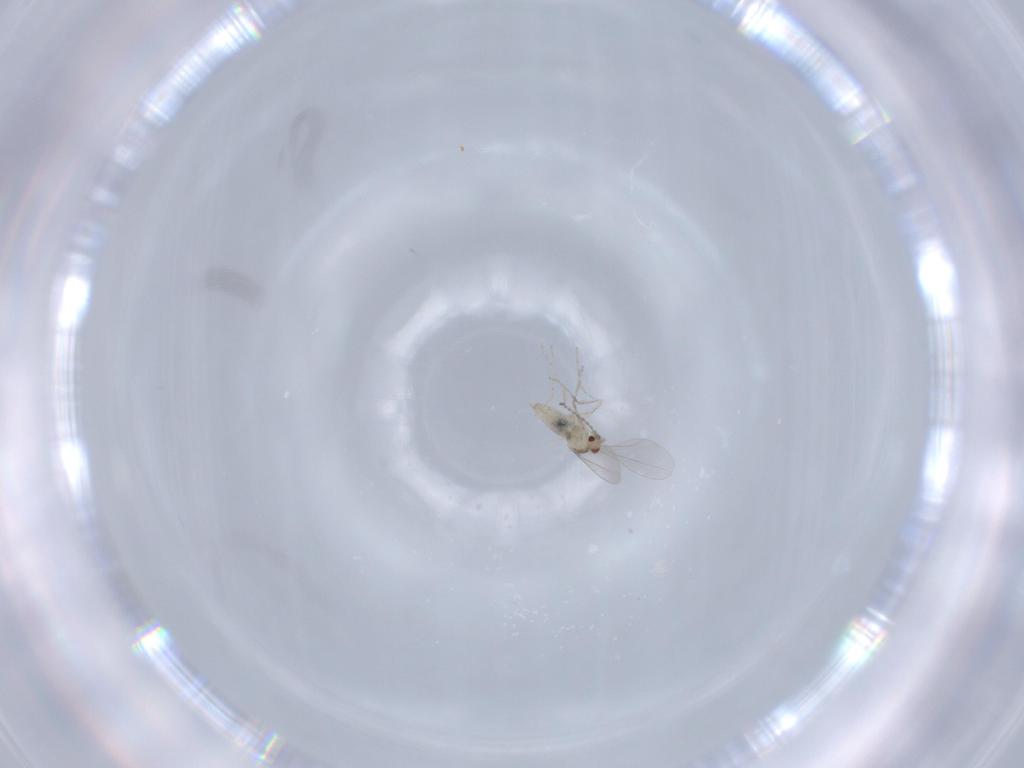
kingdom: Animalia
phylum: Arthropoda
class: Insecta
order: Diptera
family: Cecidomyiidae
